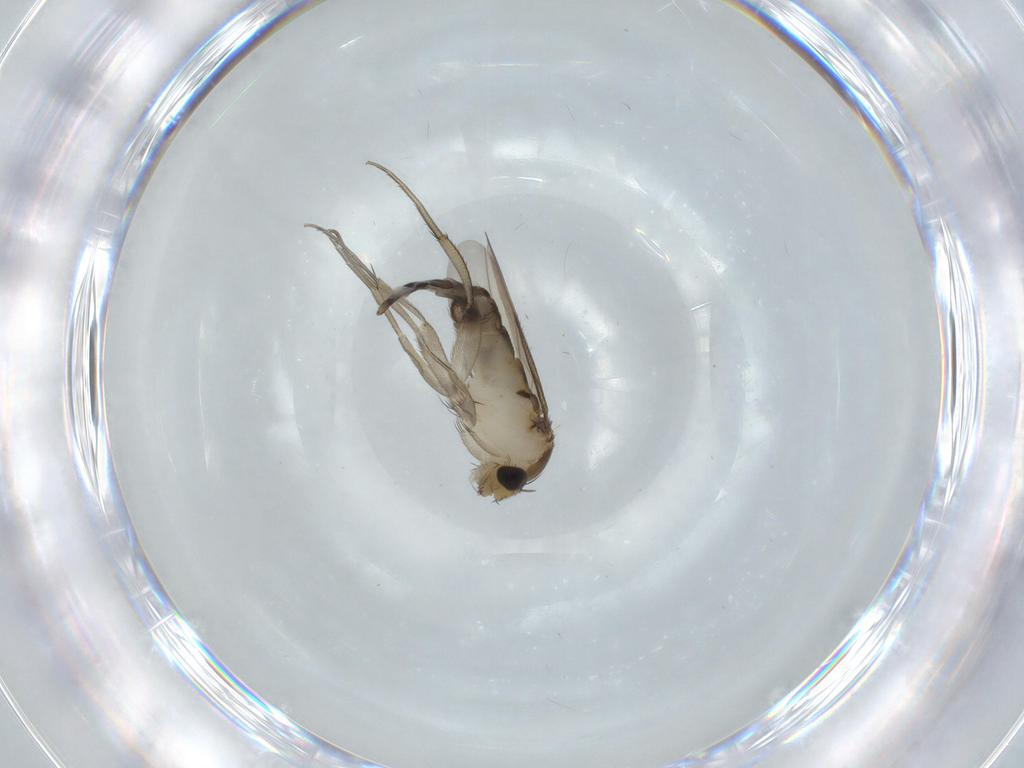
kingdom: Animalia
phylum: Arthropoda
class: Insecta
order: Diptera
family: Phoridae
